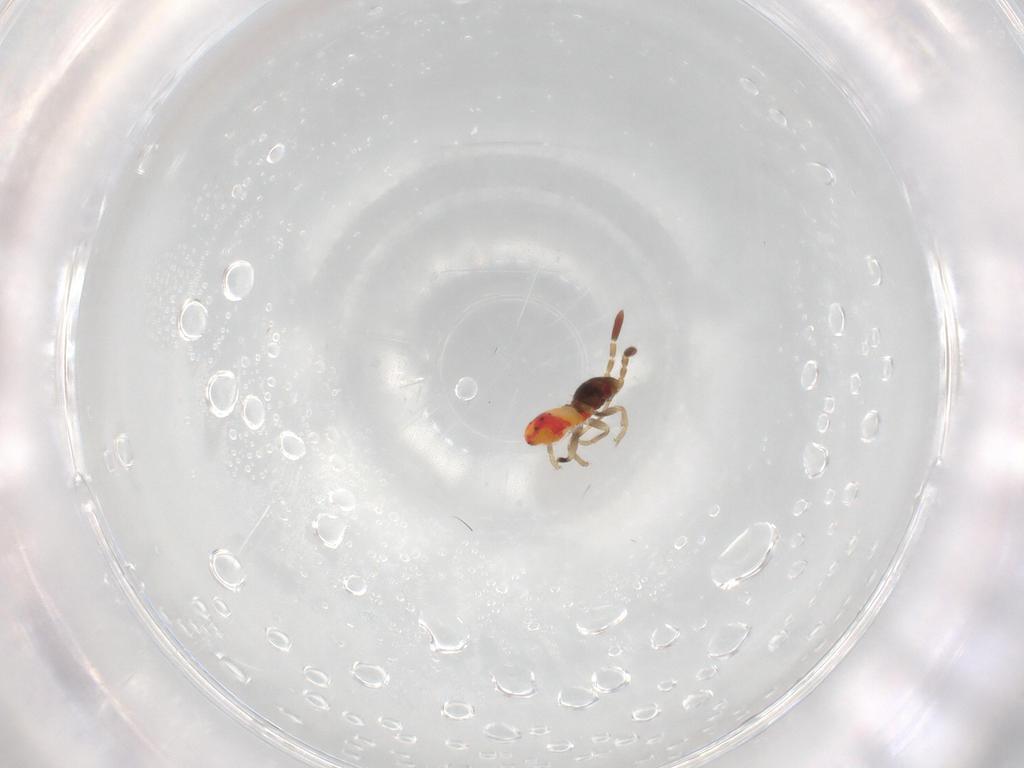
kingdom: Animalia
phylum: Arthropoda
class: Insecta
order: Hemiptera
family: Rhyparochromidae
